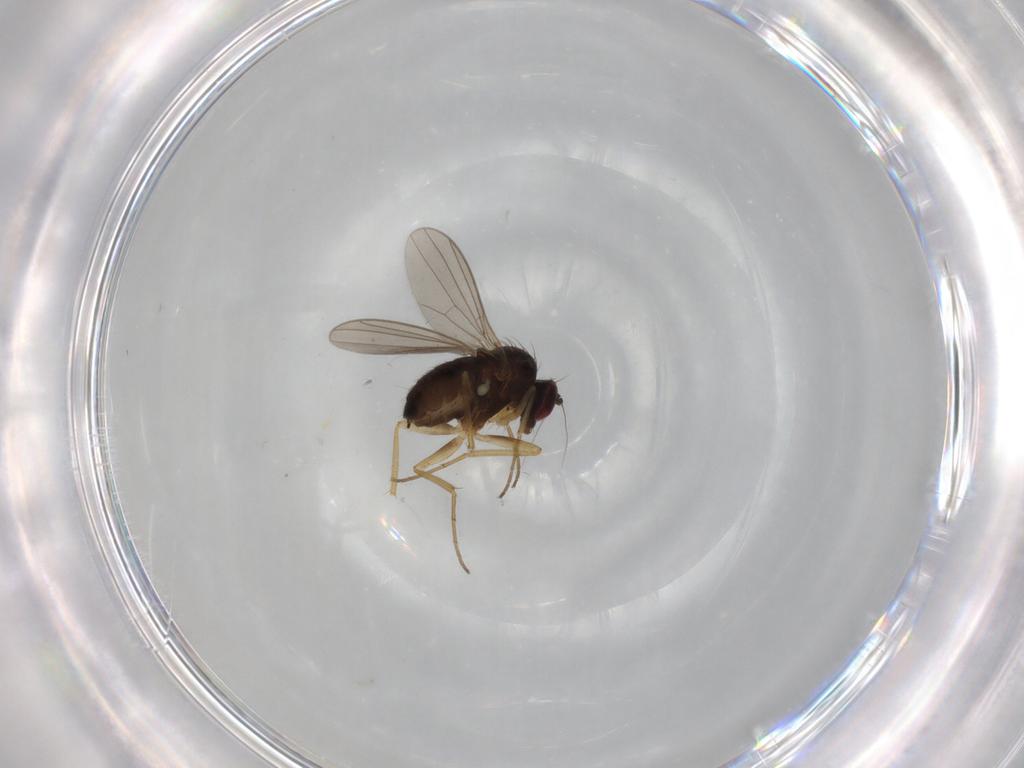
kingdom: Animalia
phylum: Arthropoda
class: Insecta
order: Diptera
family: Dolichopodidae
